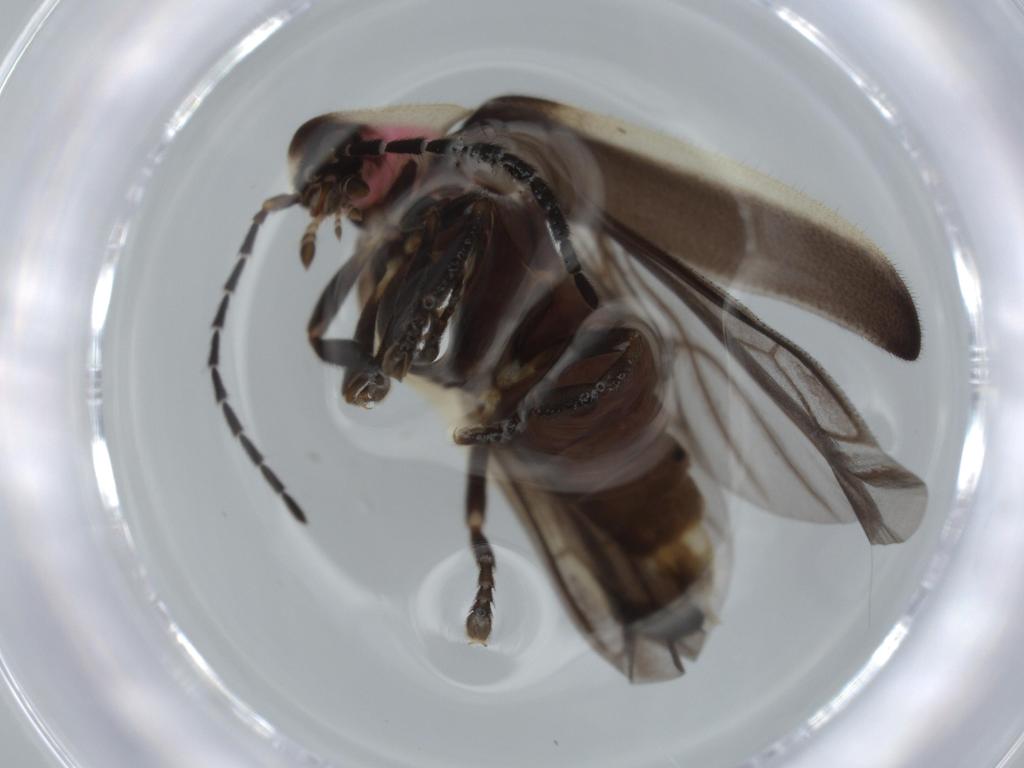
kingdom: Animalia
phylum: Arthropoda
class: Insecta
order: Coleoptera
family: Lampyridae
